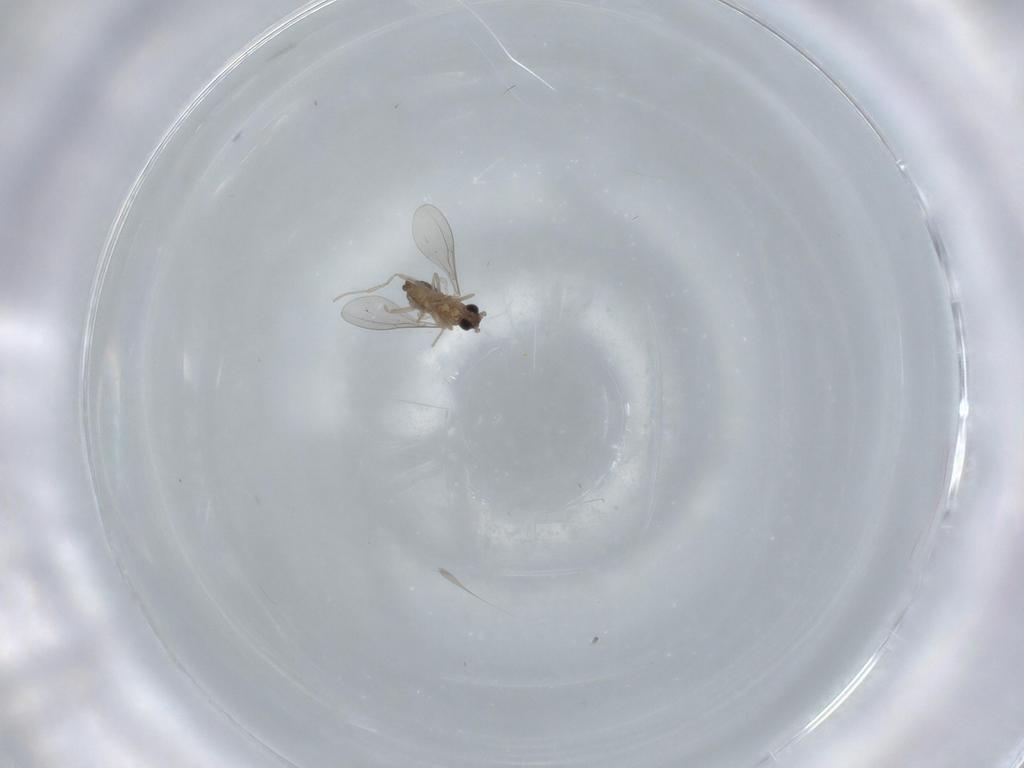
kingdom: Animalia
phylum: Arthropoda
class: Insecta
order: Diptera
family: Cecidomyiidae
